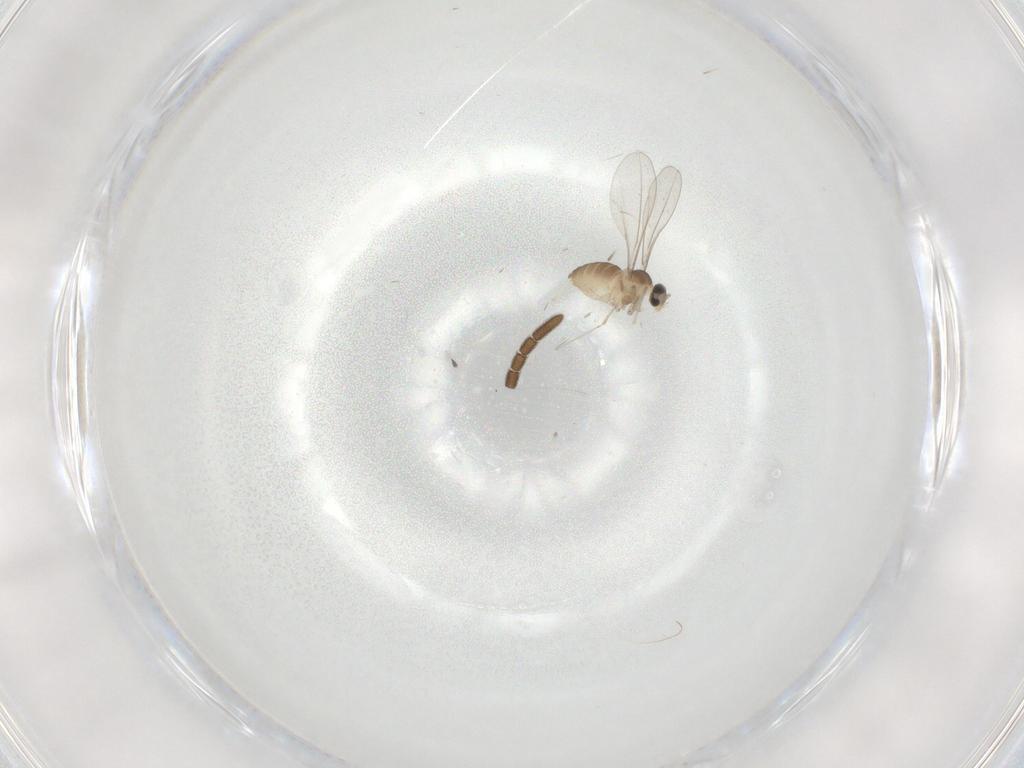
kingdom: Animalia
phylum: Arthropoda
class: Insecta
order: Diptera
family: Cecidomyiidae
